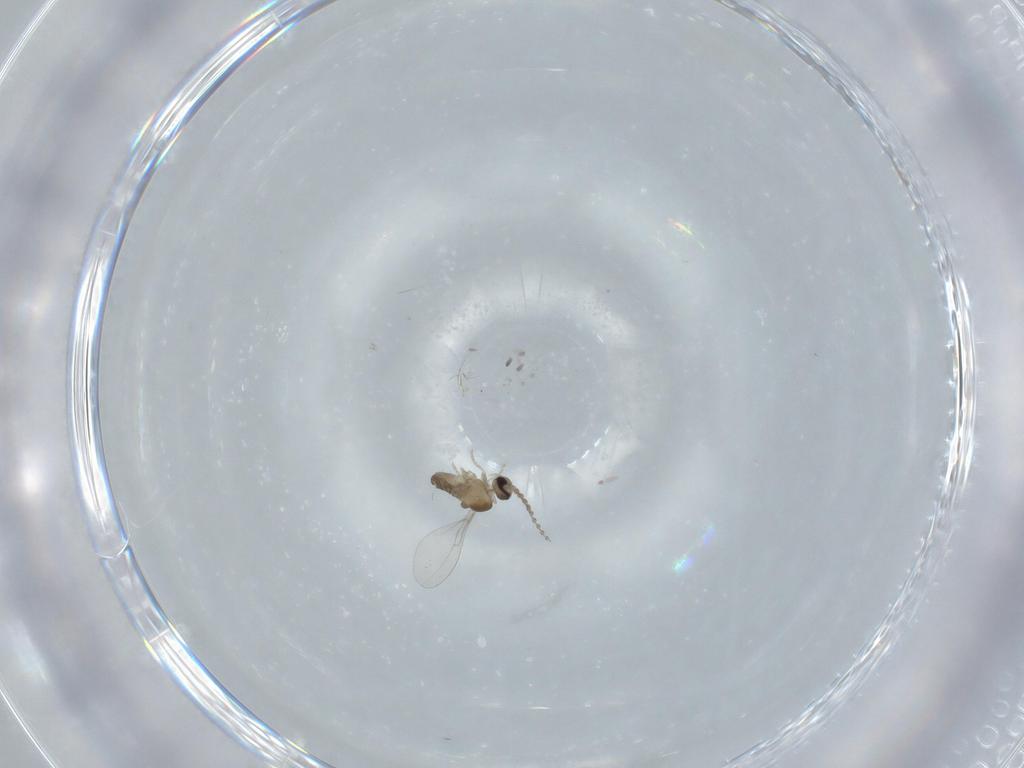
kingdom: Animalia
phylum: Arthropoda
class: Insecta
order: Diptera
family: Cecidomyiidae
